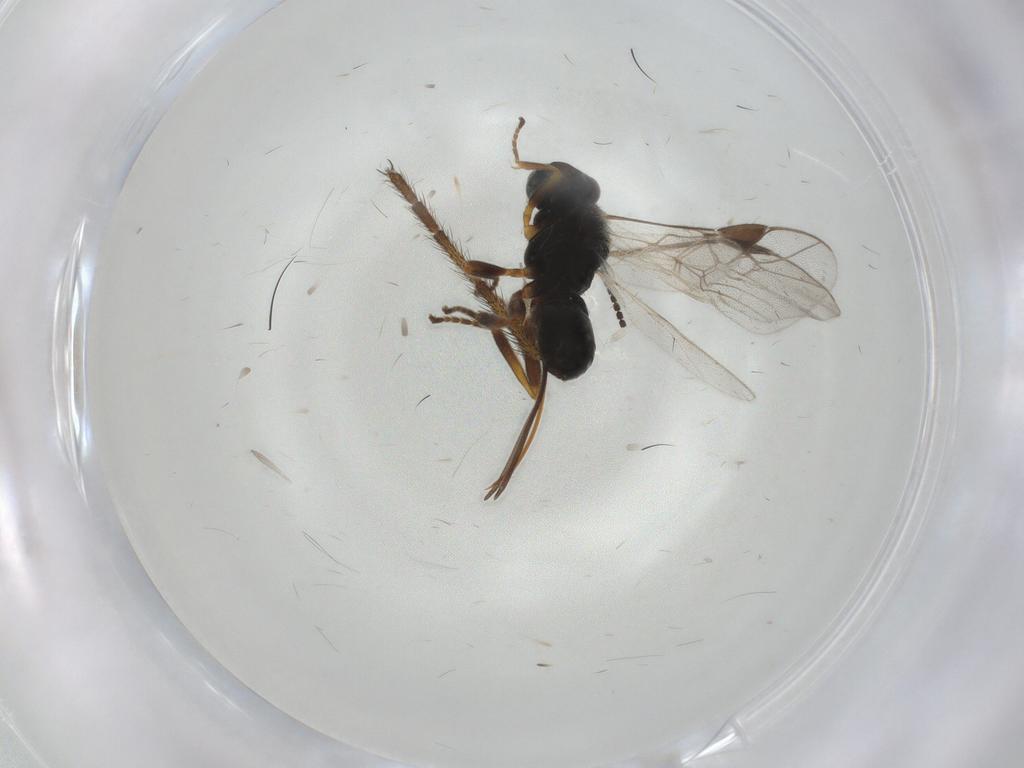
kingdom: Animalia
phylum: Arthropoda
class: Insecta
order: Hymenoptera
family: Braconidae
